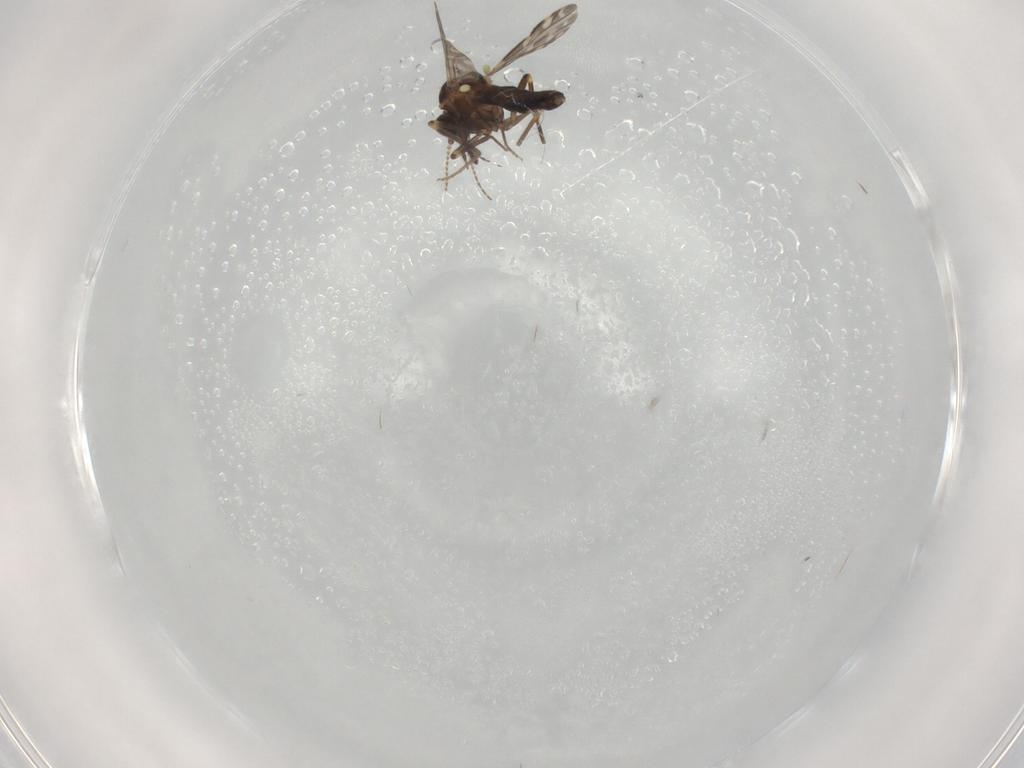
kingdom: Animalia
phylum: Arthropoda
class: Insecta
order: Diptera
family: Ceratopogonidae
